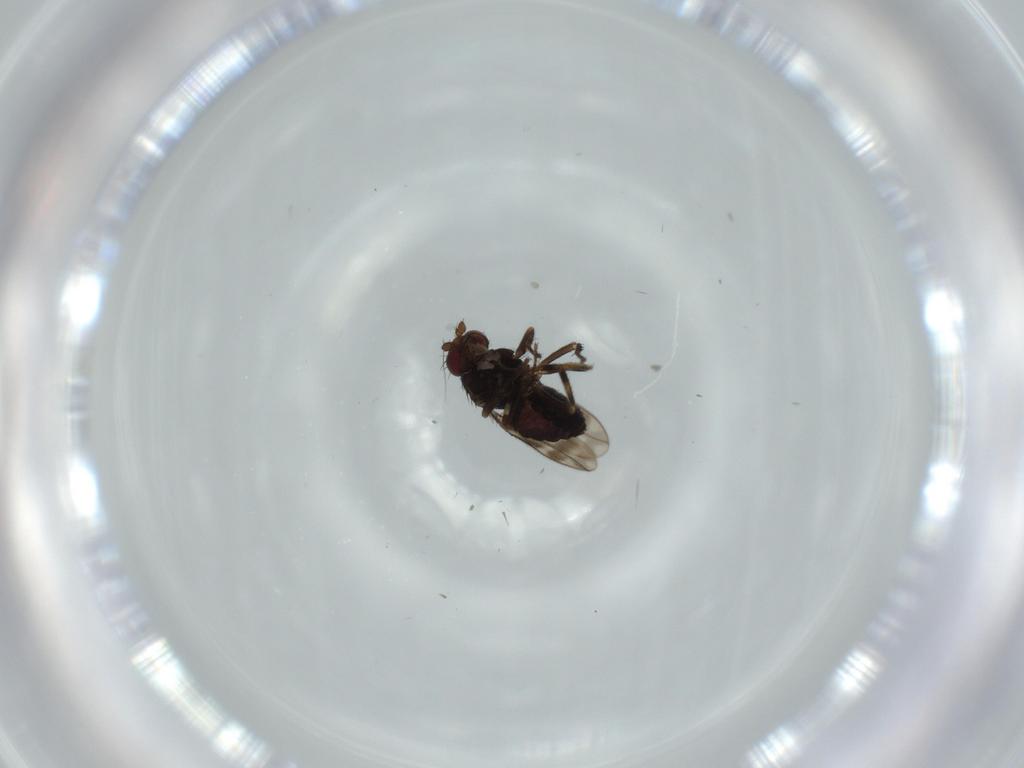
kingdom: Animalia
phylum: Arthropoda
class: Insecta
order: Diptera
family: Sphaeroceridae
